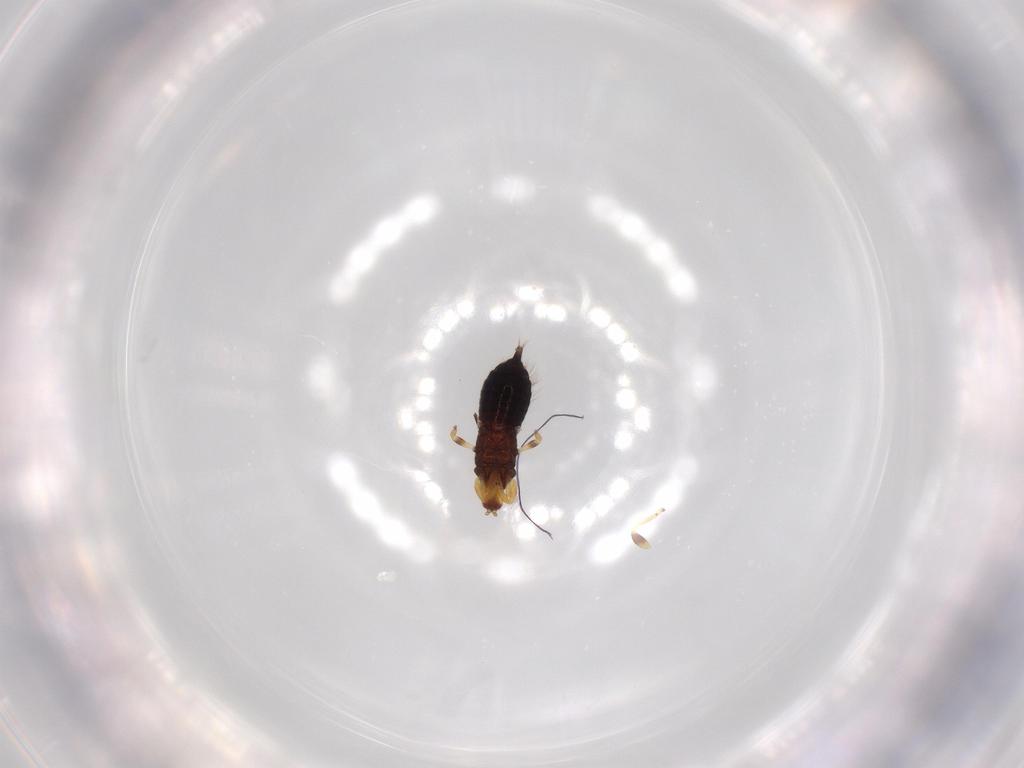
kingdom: Animalia
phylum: Arthropoda
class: Insecta
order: Thysanoptera
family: Phlaeothripidae
